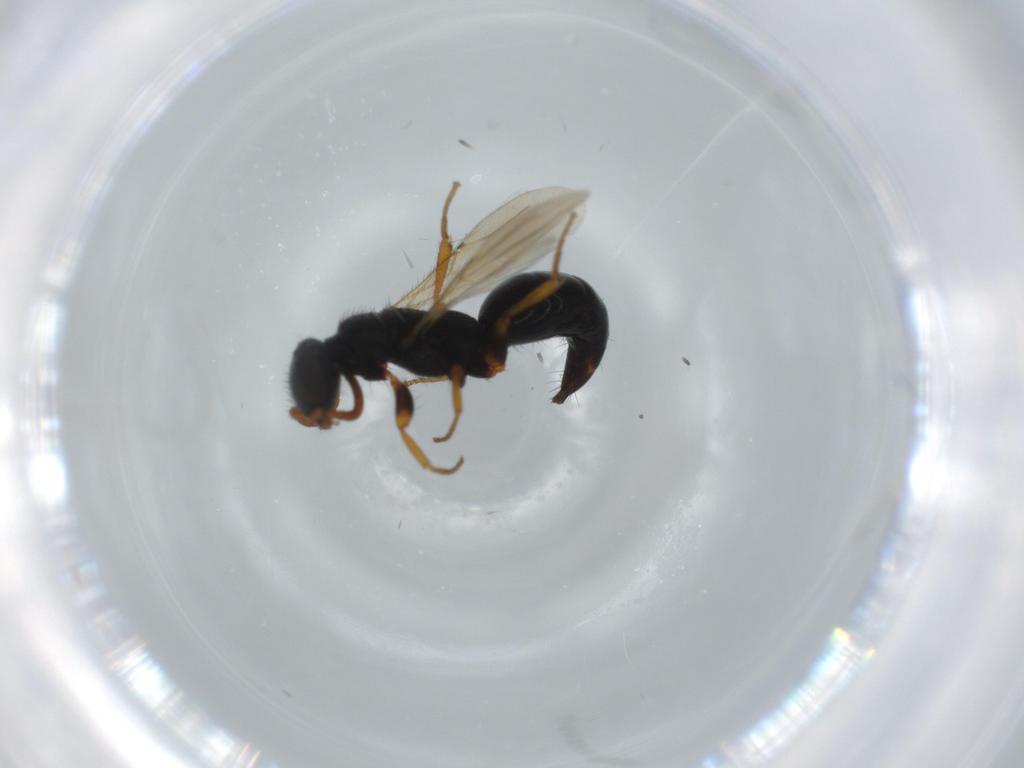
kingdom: Animalia
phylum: Arthropoda
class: Insecta
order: Hymenoptera
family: Bethylidae
